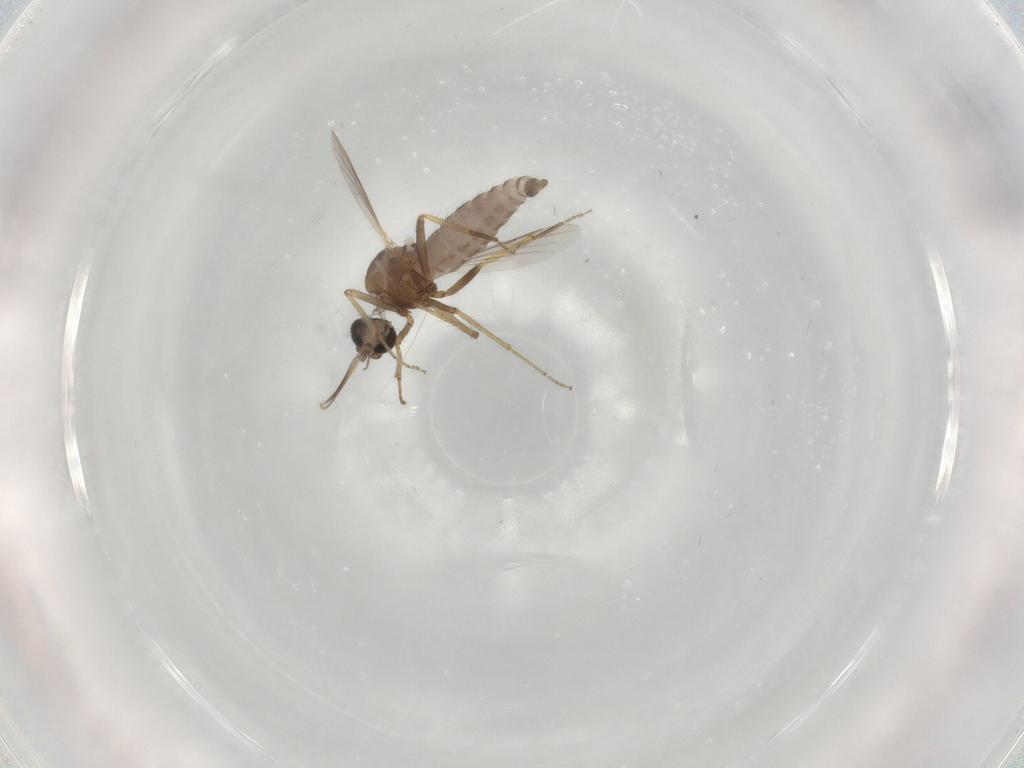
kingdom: Animalia
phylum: Arthropoda
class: Insecta
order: Diptera
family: Ceratopogonidae
